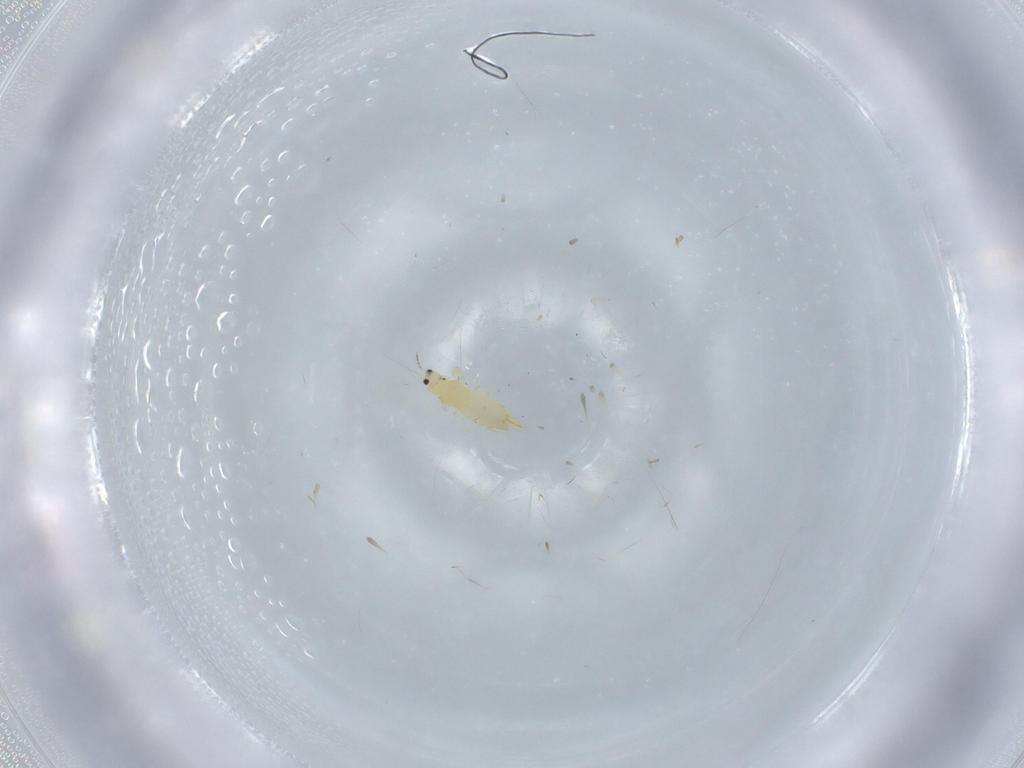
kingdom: Animalia
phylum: Arthropoda
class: Insecta
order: Thysanoptera
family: Thripidae
